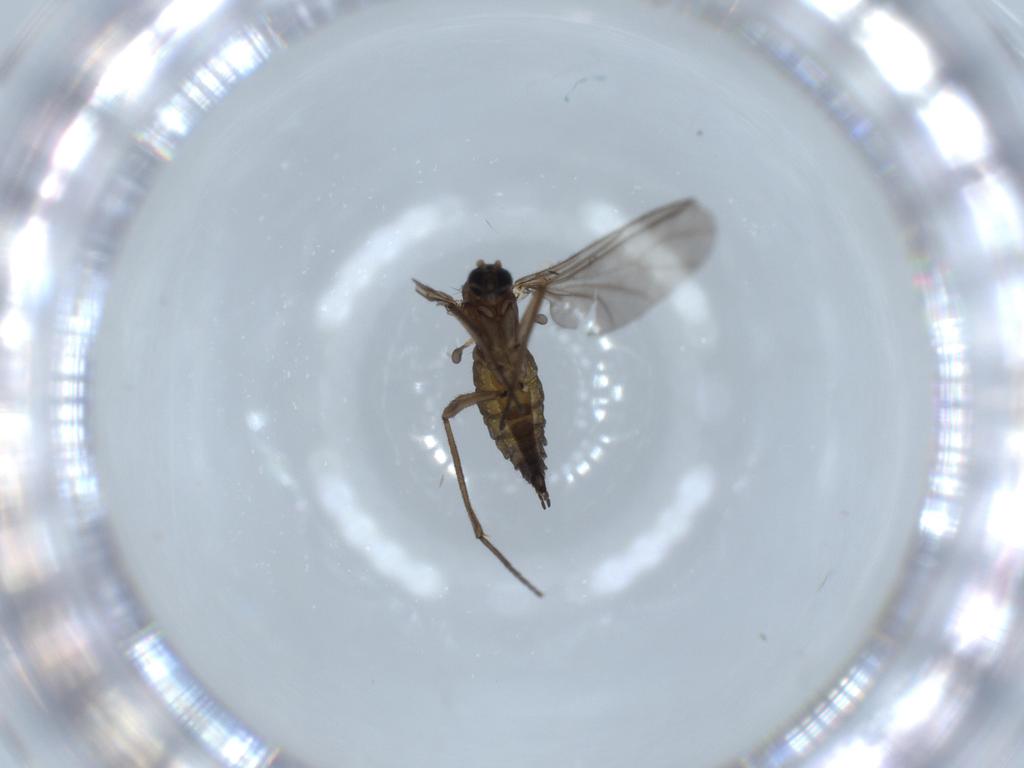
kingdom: Animalia
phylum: Arthropoda
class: Insecta
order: Diptera
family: Sciaridae
